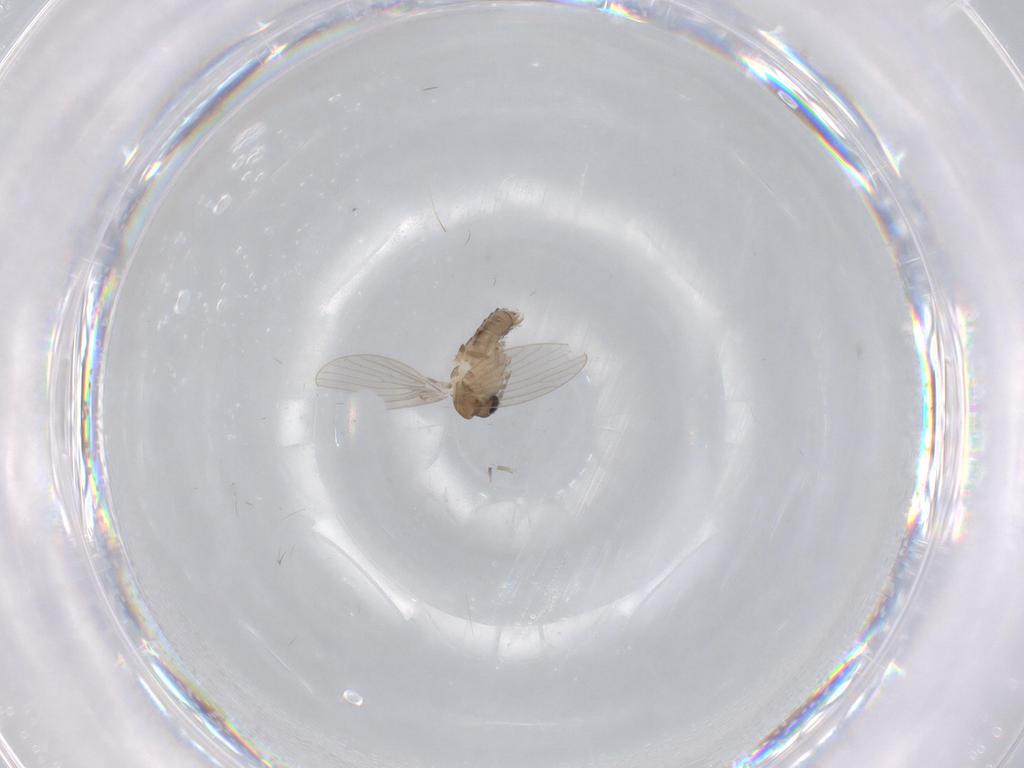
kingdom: Animalia
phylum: Arthropoda
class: Insecta
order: Diptera
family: Psychodidae
